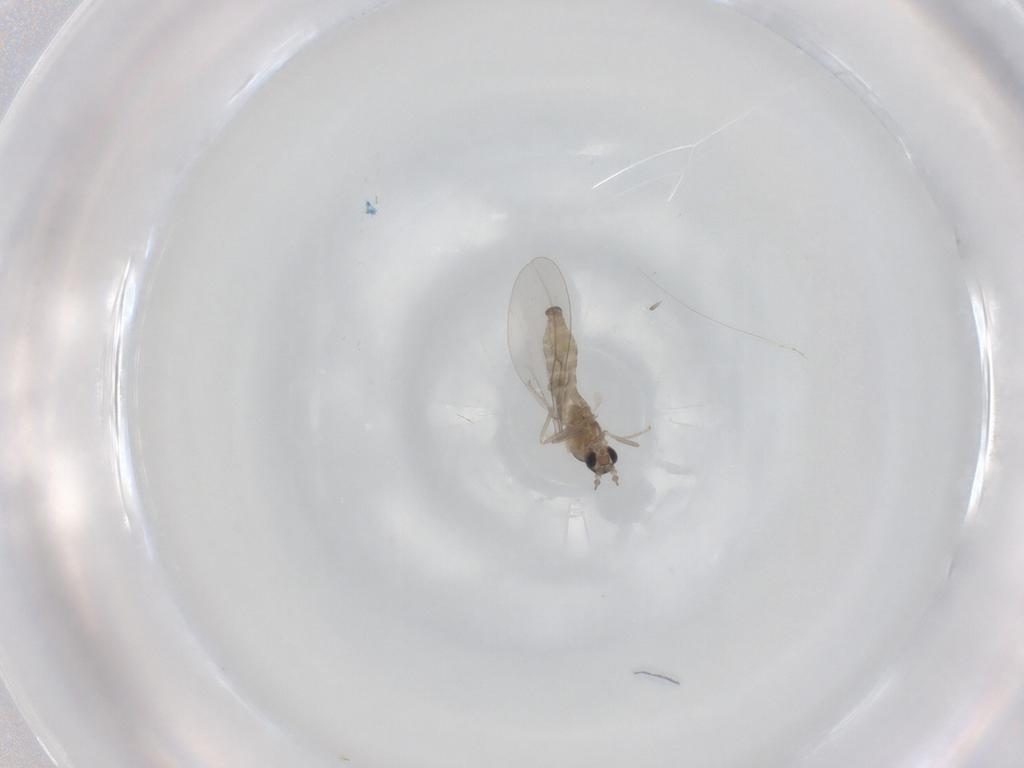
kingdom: Animalia
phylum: Arthropoda
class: Insecta
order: Diptera
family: Cecidomyiidae
